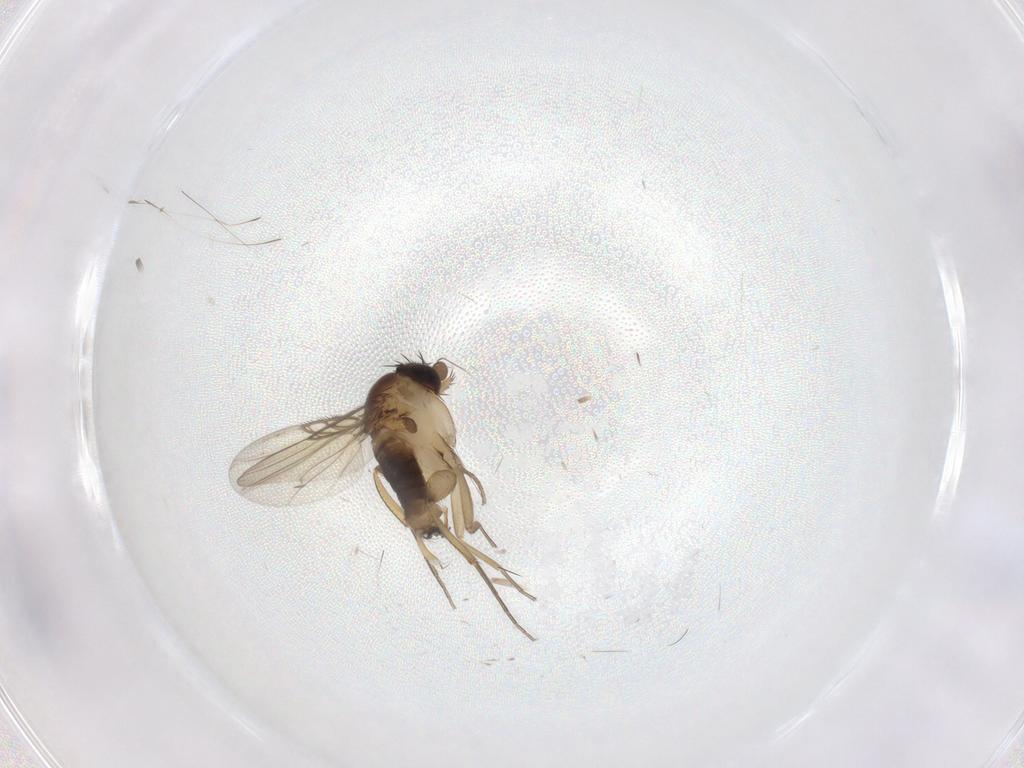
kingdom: Animalia
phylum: Arthropoda
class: Insecta
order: Diptera
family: Phoridae
